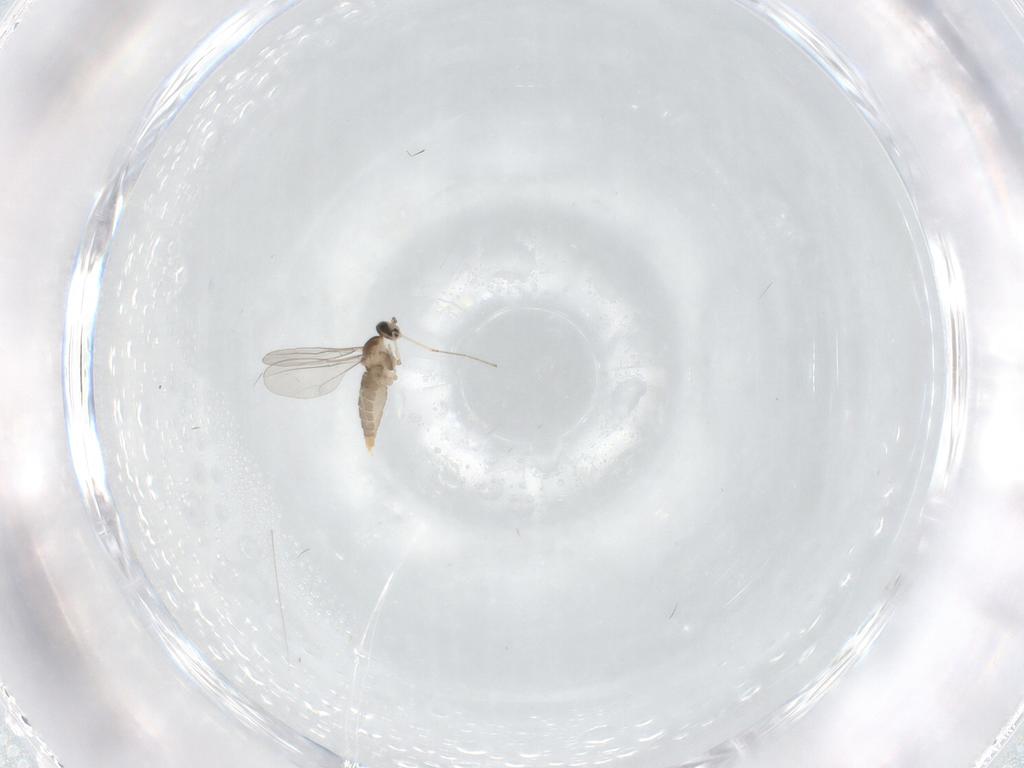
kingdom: Animalia
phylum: Arthropoda
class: Insecta
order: Diptera
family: Cecidomyiidae
